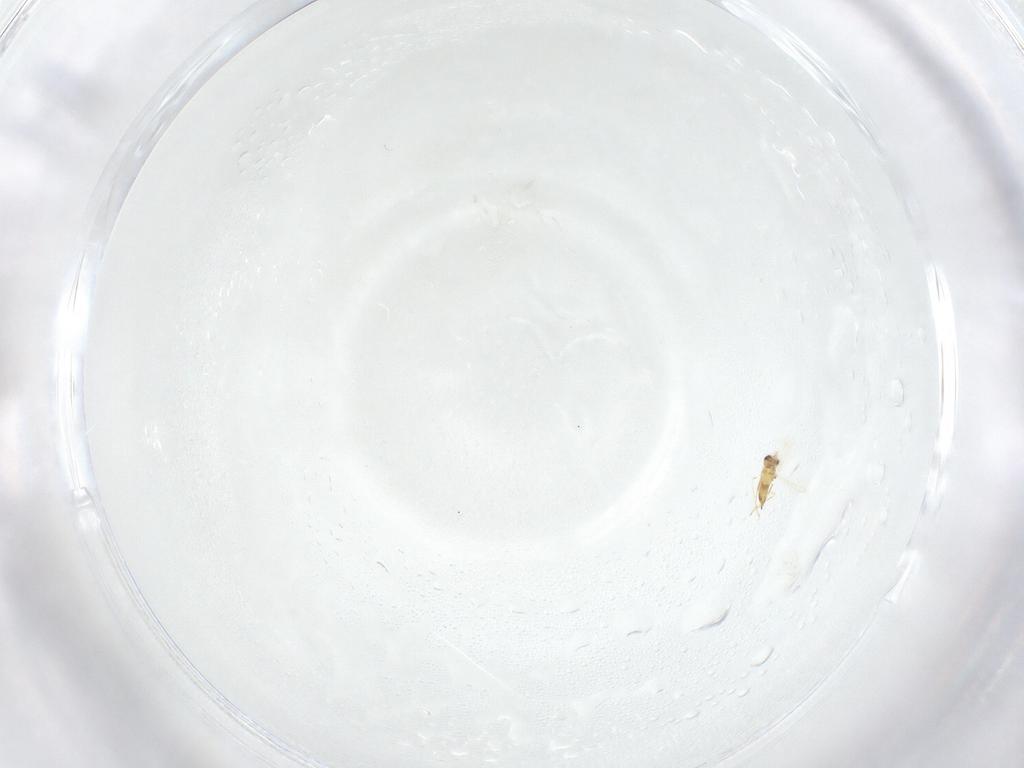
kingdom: Animalia
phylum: Arthropoda
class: Insecta
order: Hymenoptera
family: Mymaridae
